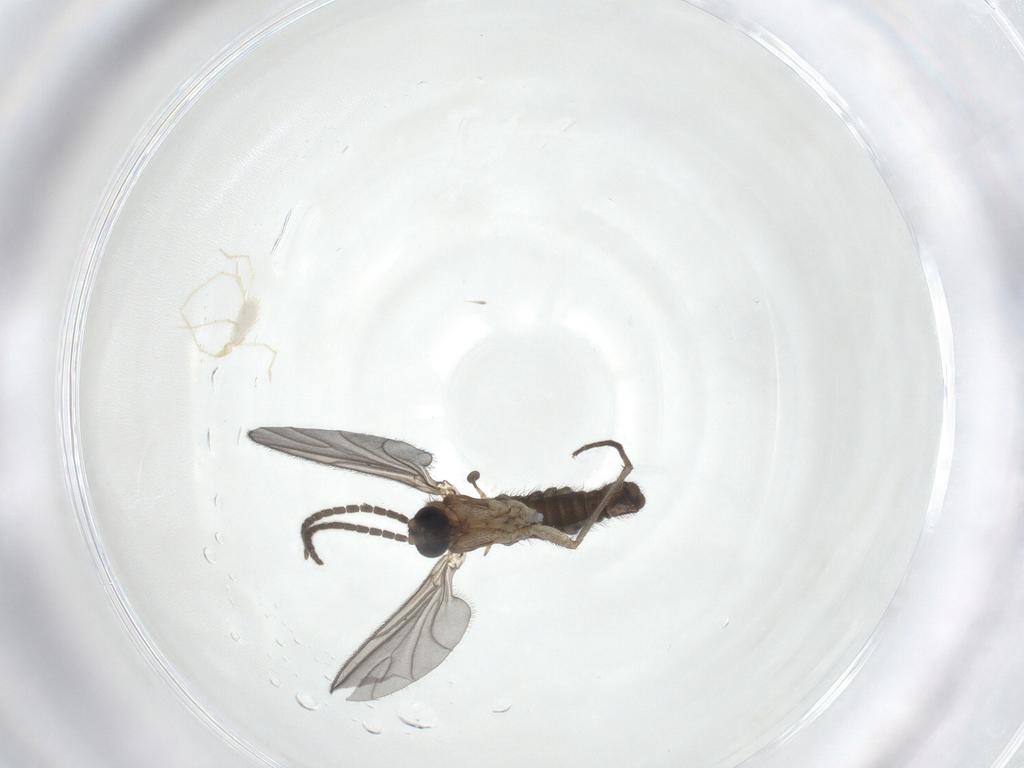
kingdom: Animalia
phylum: Arthropoda
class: Insecta
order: Diptera
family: Sciaridae
